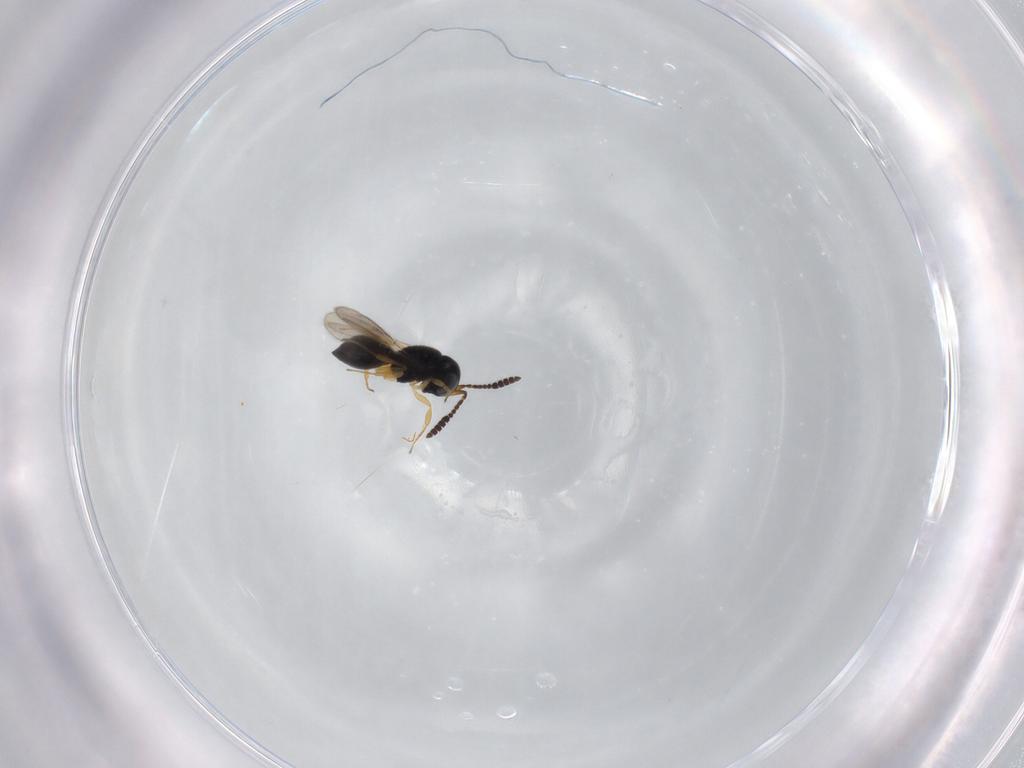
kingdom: Animalia
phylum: Arthropoda
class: Insecta
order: Hymenoptera
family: Scelionidae
